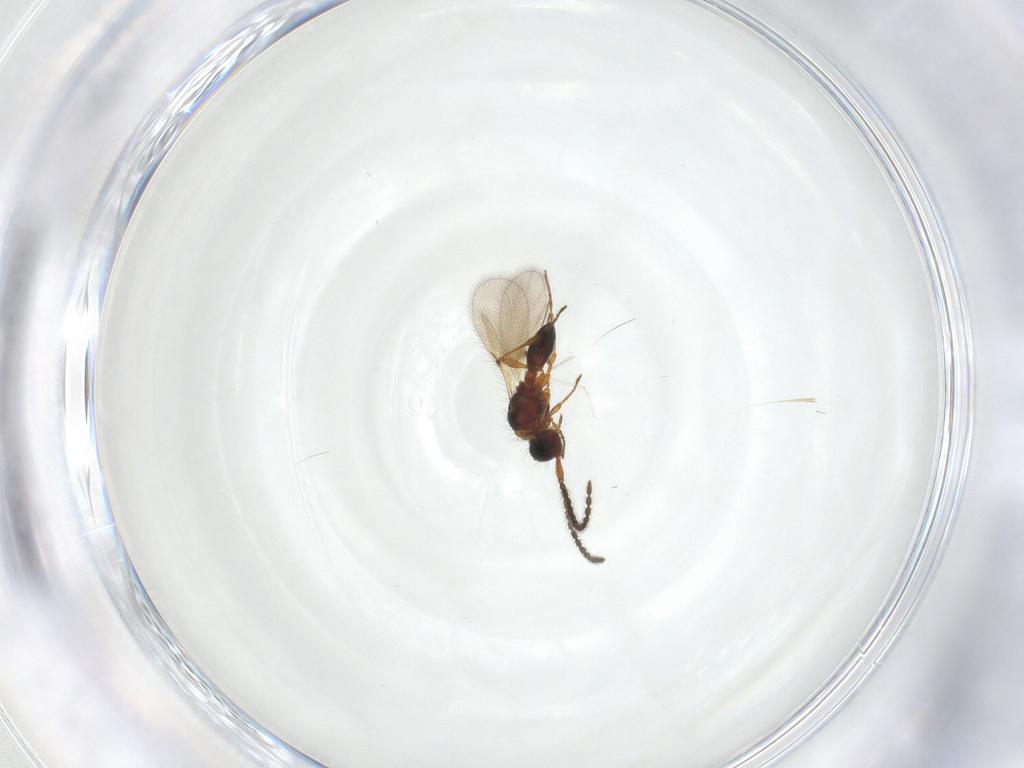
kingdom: Animalia
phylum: Arthropoda
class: Insecta
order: Hymenoptera
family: Diapriidae
